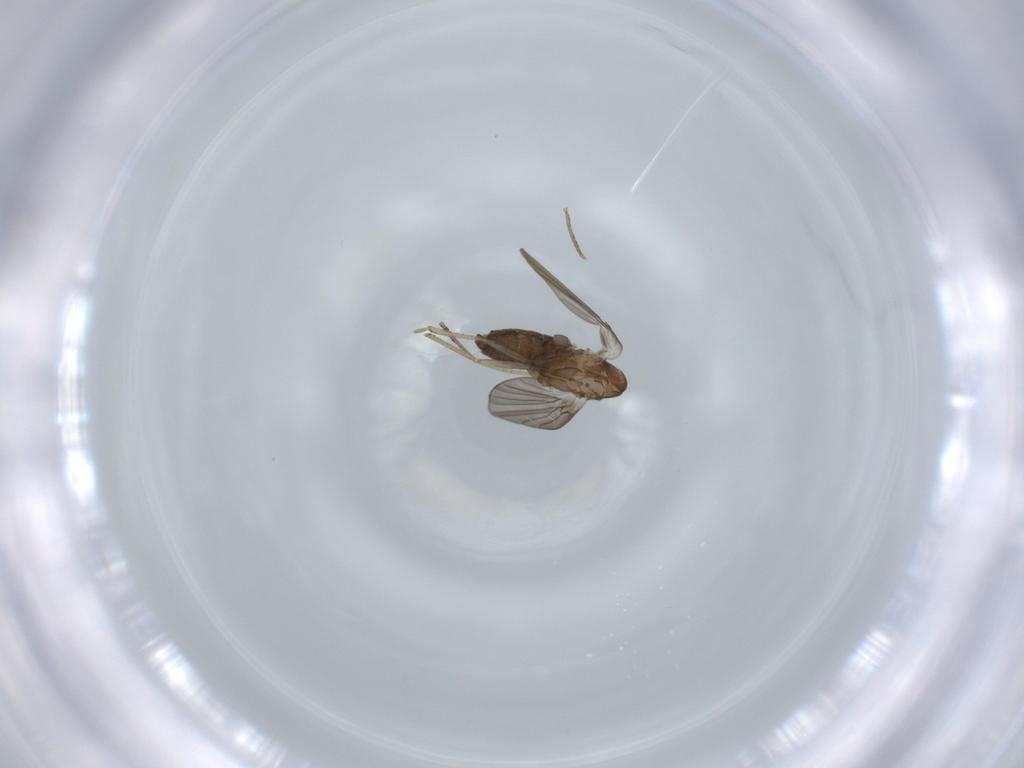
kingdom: Animalia
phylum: Arthropoda
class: Insecta
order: Diptera
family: Psychodidae
